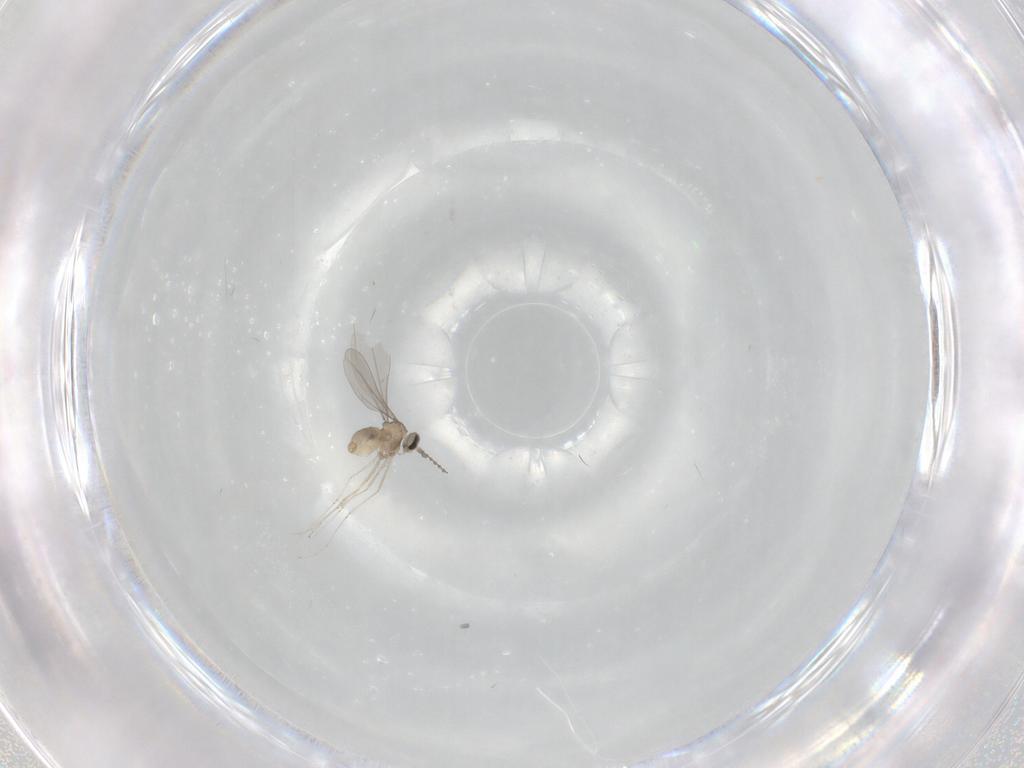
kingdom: Animalia
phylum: Arthropoda
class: Insecta
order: Diptera
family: Cecidomyiidae
